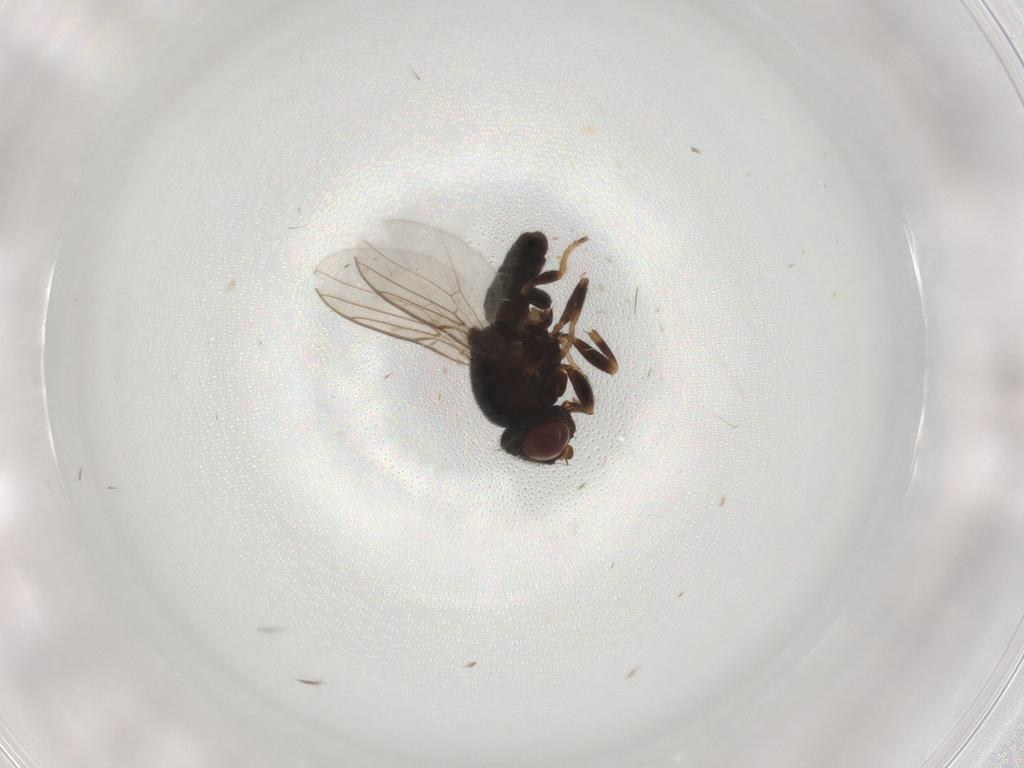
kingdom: Animalia
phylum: Arthropoda
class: Insecta
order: Diptera
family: Chloropidae
